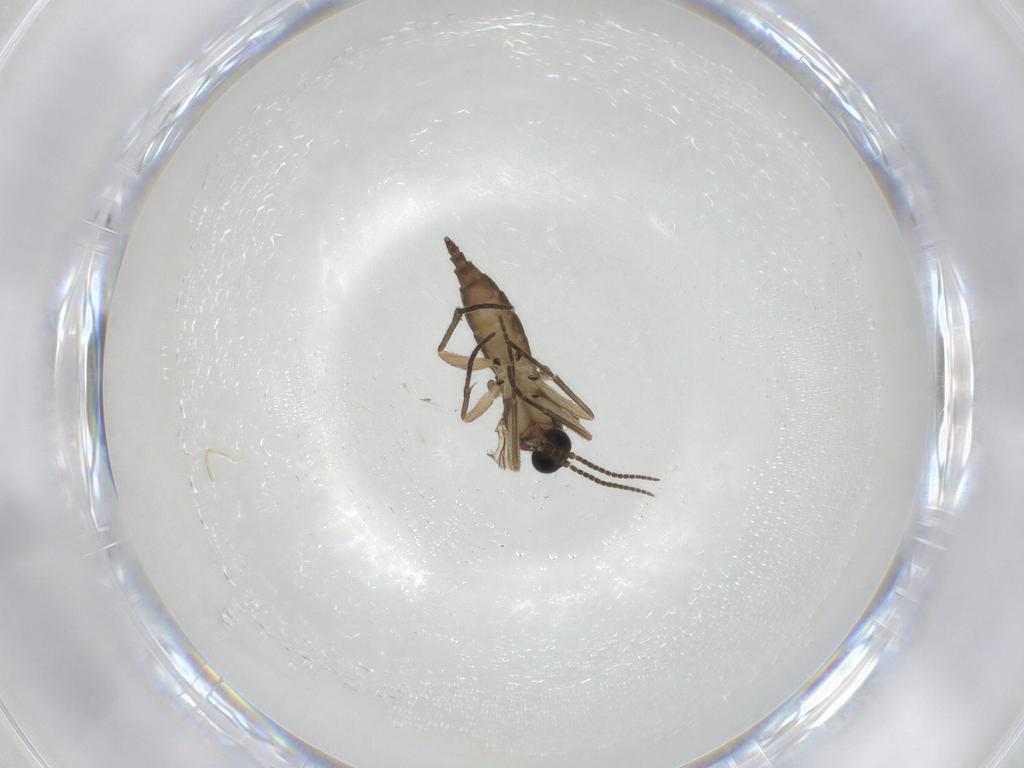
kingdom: Animalia
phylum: Arthropoda
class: Insecta
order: Diptera
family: Sciaridae
